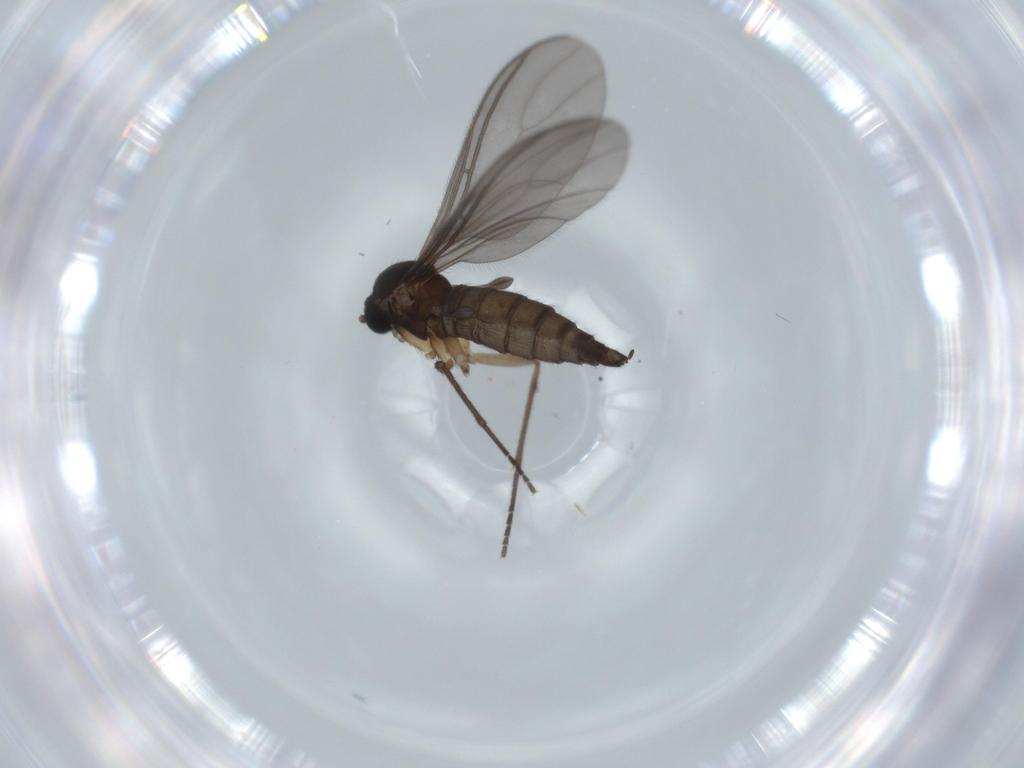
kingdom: Animalia
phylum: Arthropoda
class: Insecta
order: Diptera
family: Sciaridae
